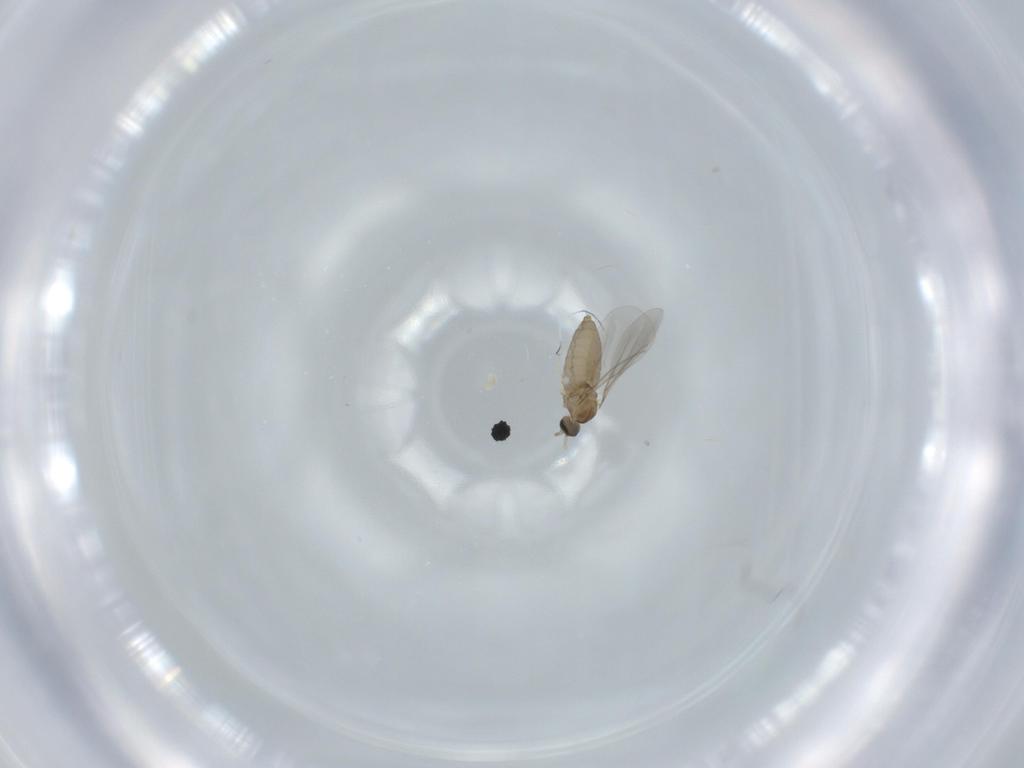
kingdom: Animalia
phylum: Arthropoda
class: Insecta
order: Diptera
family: Cecidomyiidae
